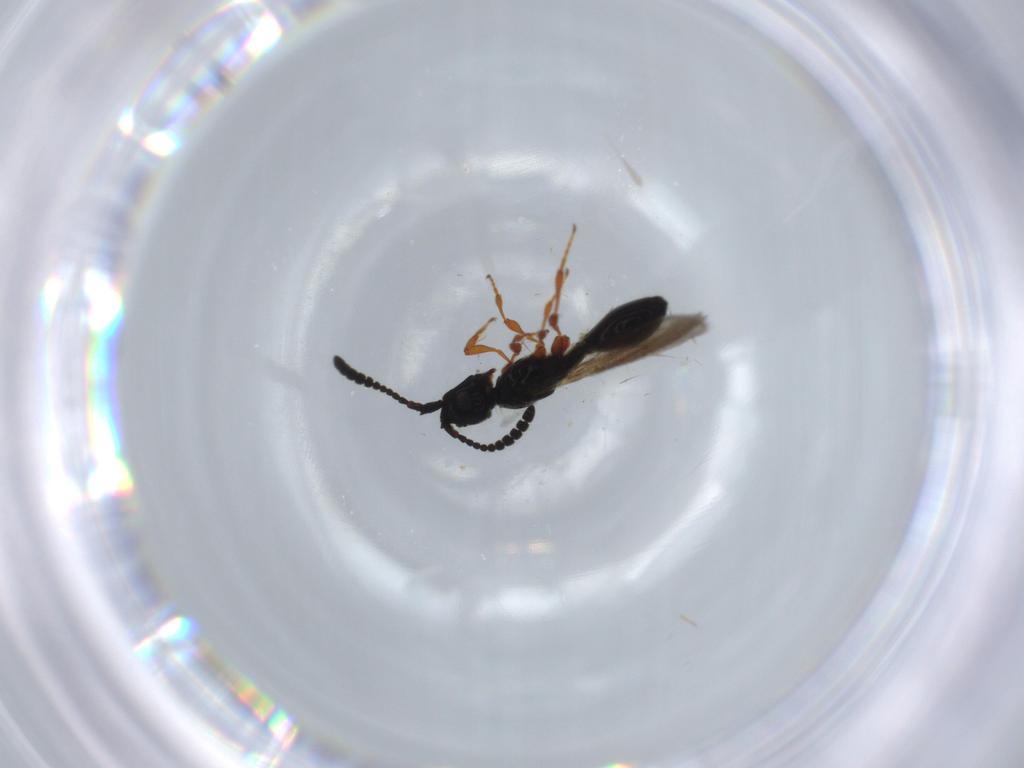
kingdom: Animalia
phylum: Arthropoda
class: Insecta
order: Hymenoptera
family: Diapriidae
